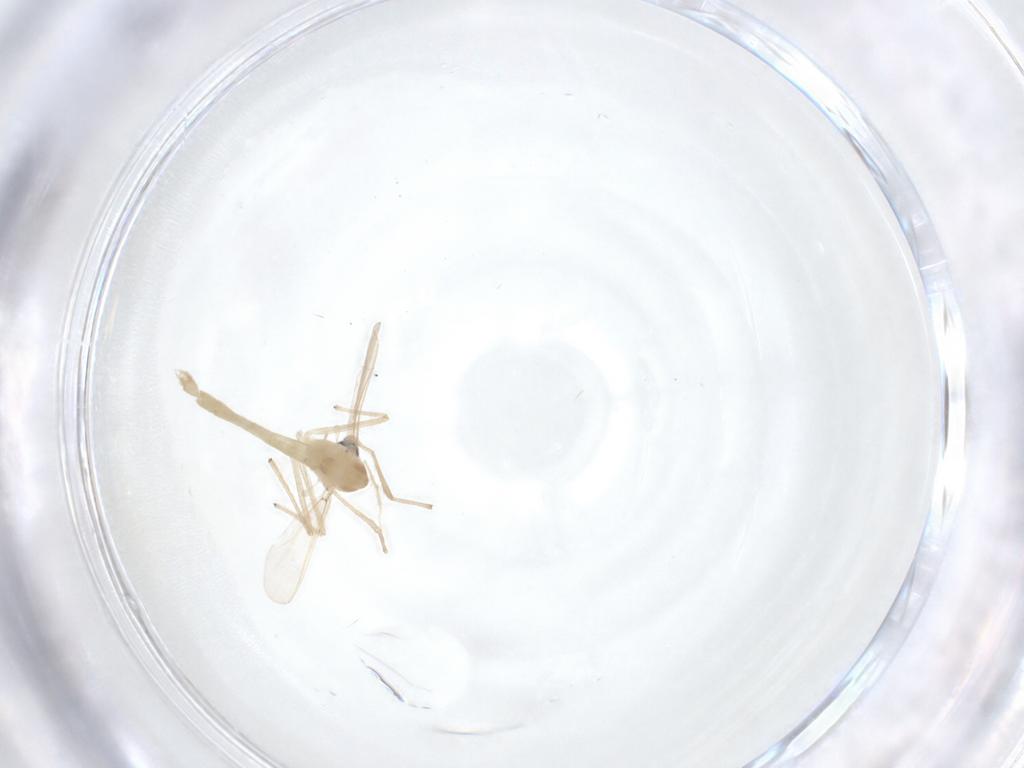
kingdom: Animalia
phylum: Arthropoda
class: Insecta
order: Diptera
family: Chironomidae
